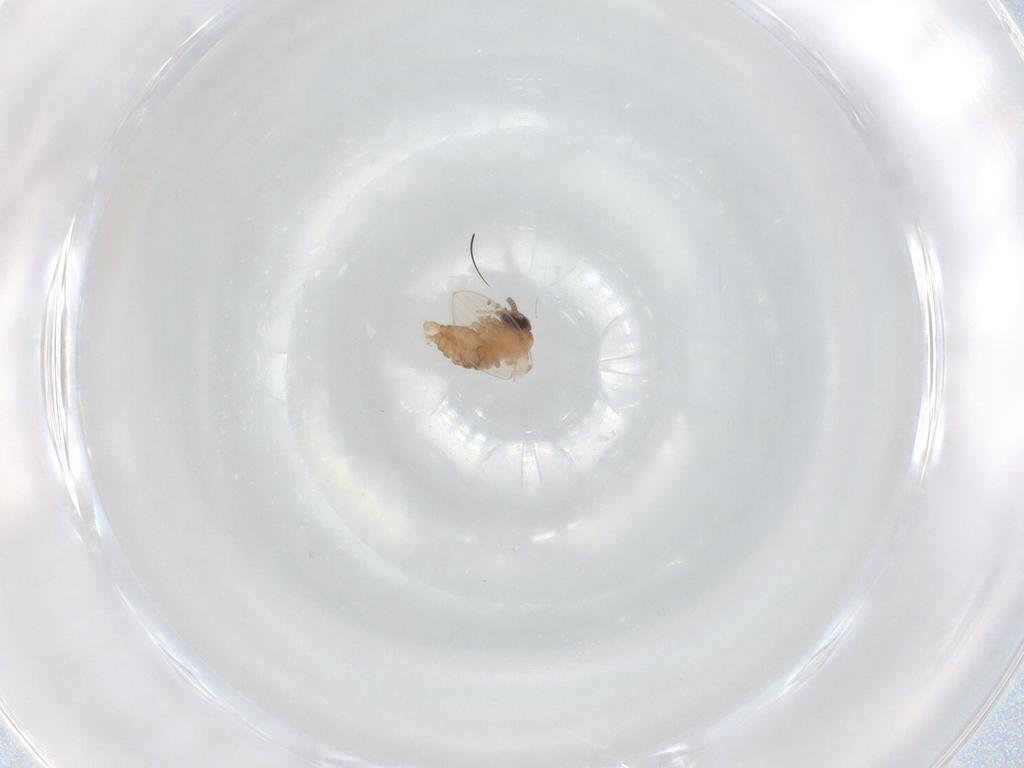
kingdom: Animalia
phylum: Arthropoda
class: Insecta
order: Diptera
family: Psychodidae
